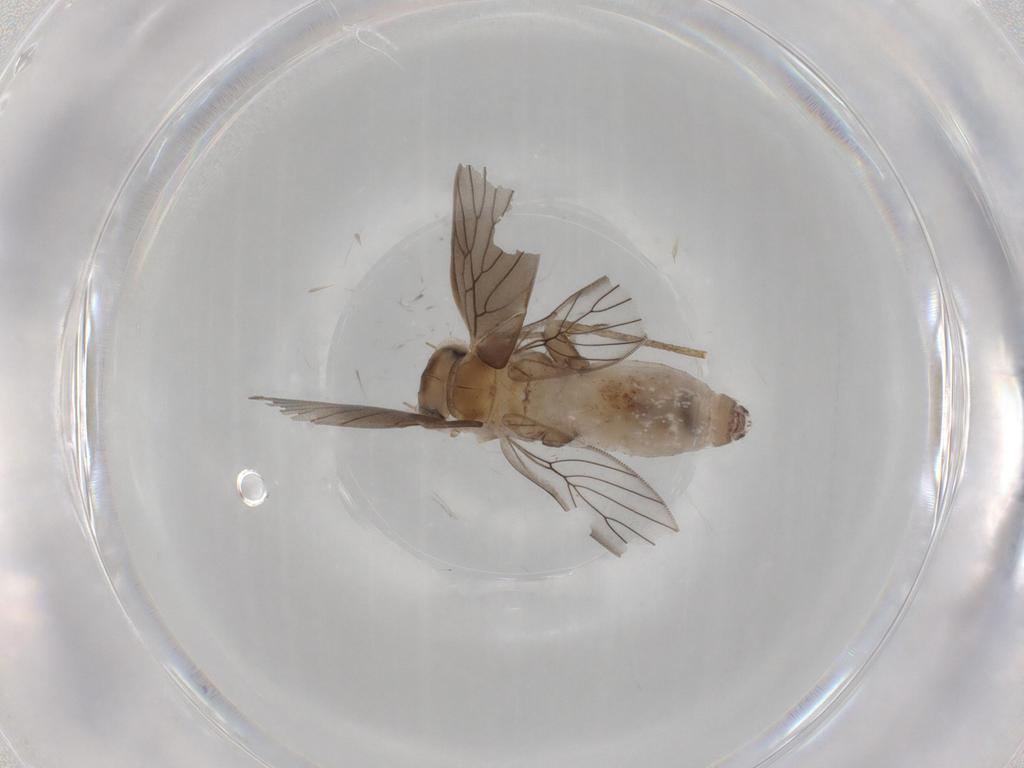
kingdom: Animalia
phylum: Arthropoda
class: Insecta
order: Psocodea
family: Lepidopsocidae
